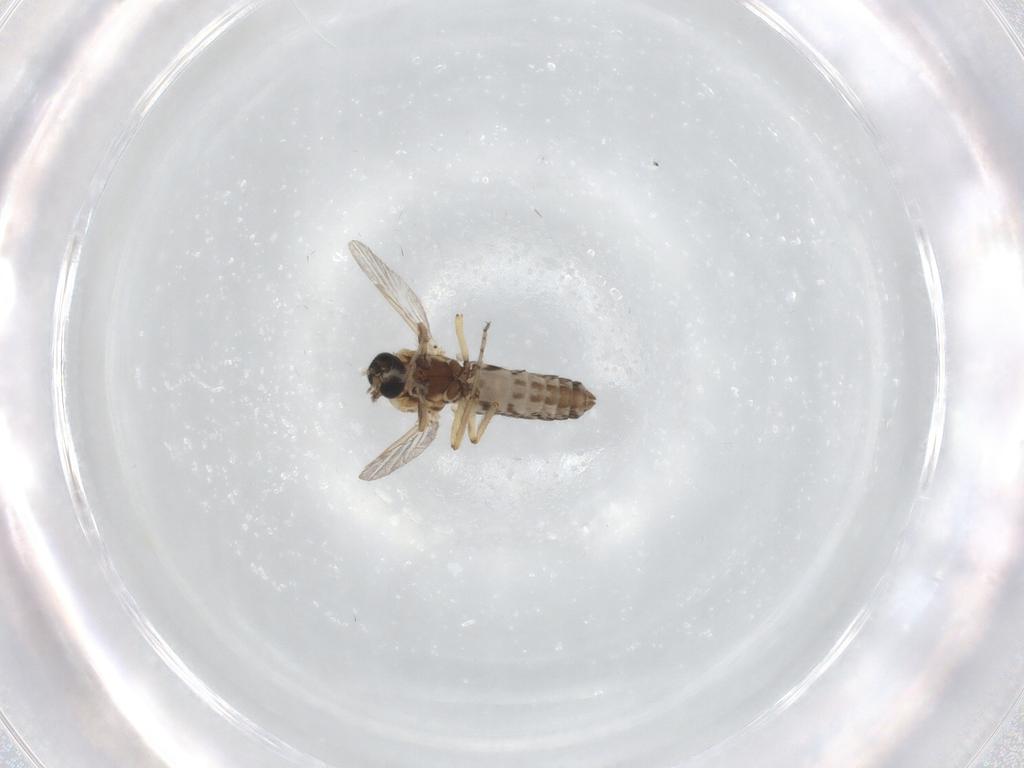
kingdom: Animalia
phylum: Arthropoda
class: Insecta
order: Diptera
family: Ceratopogonidae
